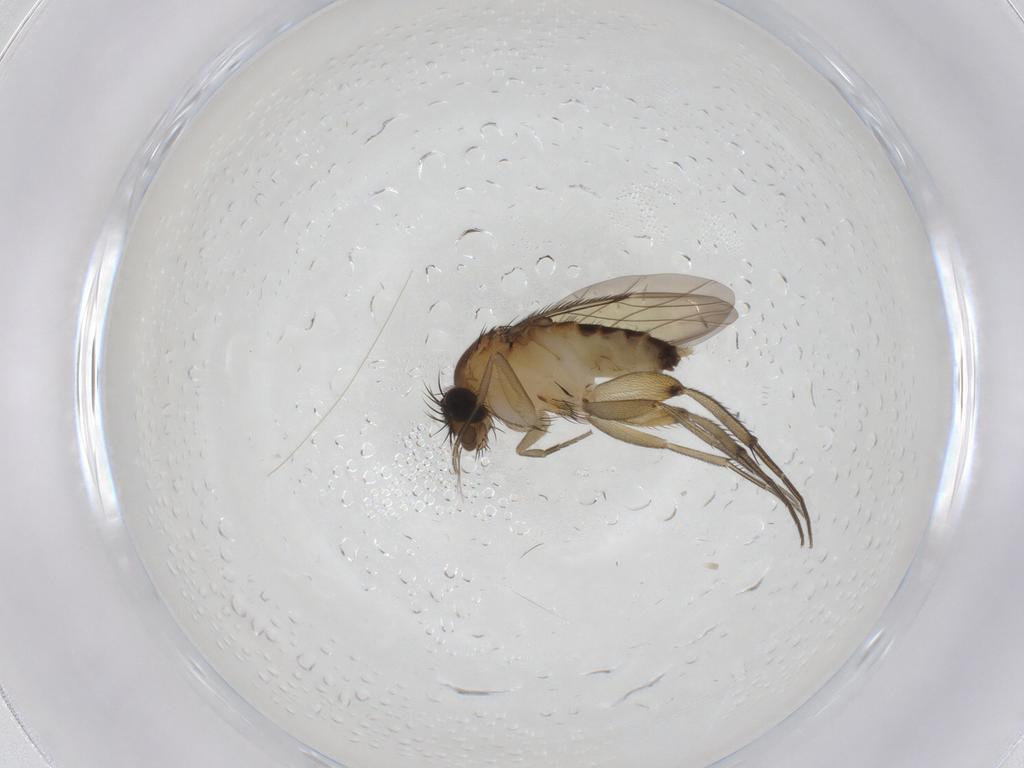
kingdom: Animalia
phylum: Arthropoda
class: Insecta
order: Diptera
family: Phoridae
